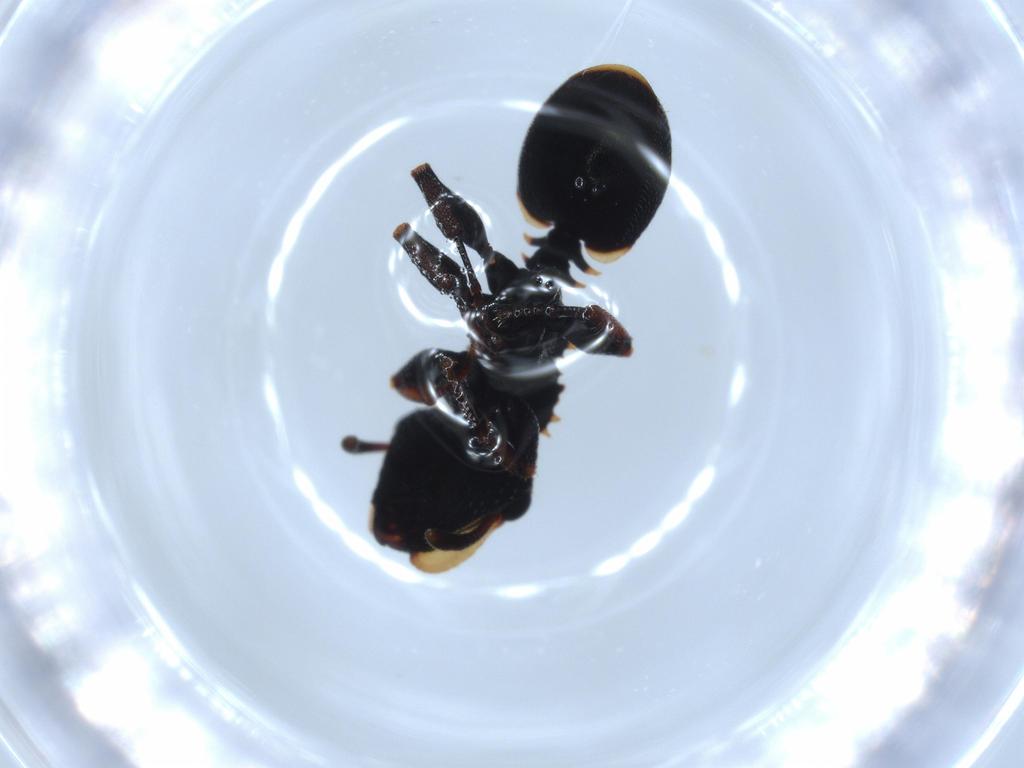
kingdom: Animalia
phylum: Arthropoda
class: Insecta
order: Hymenoptera
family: Formicidae
